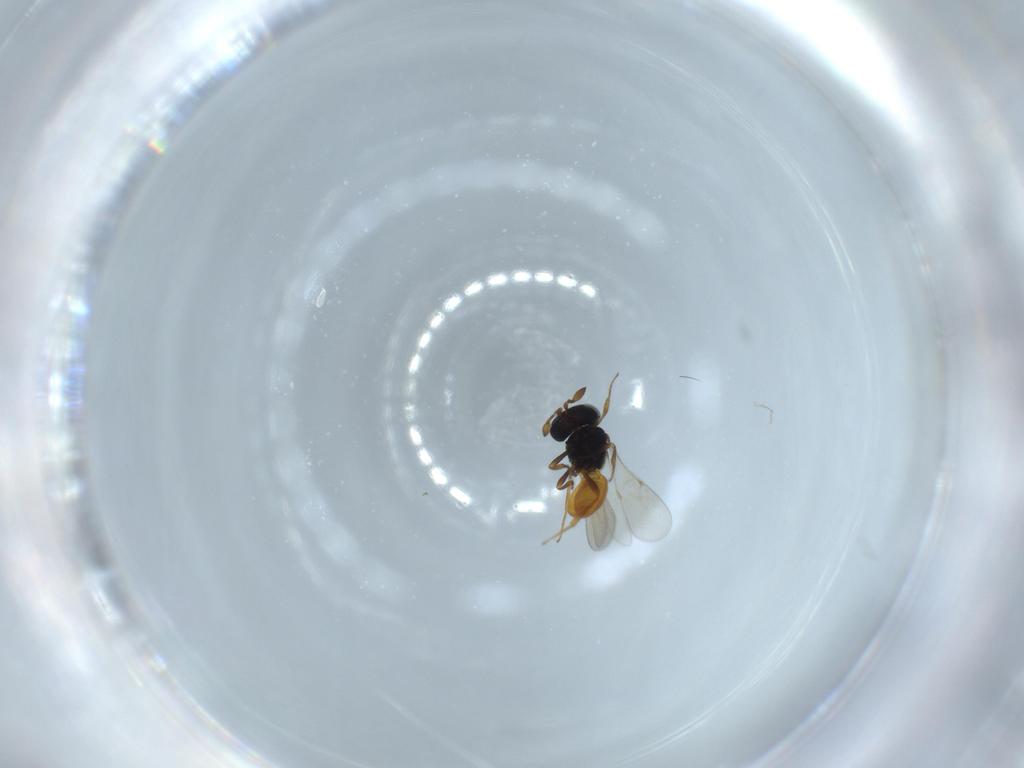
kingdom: Animalia
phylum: Arthropoda
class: Insecta
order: Hymenoptera
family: Scelionidae
